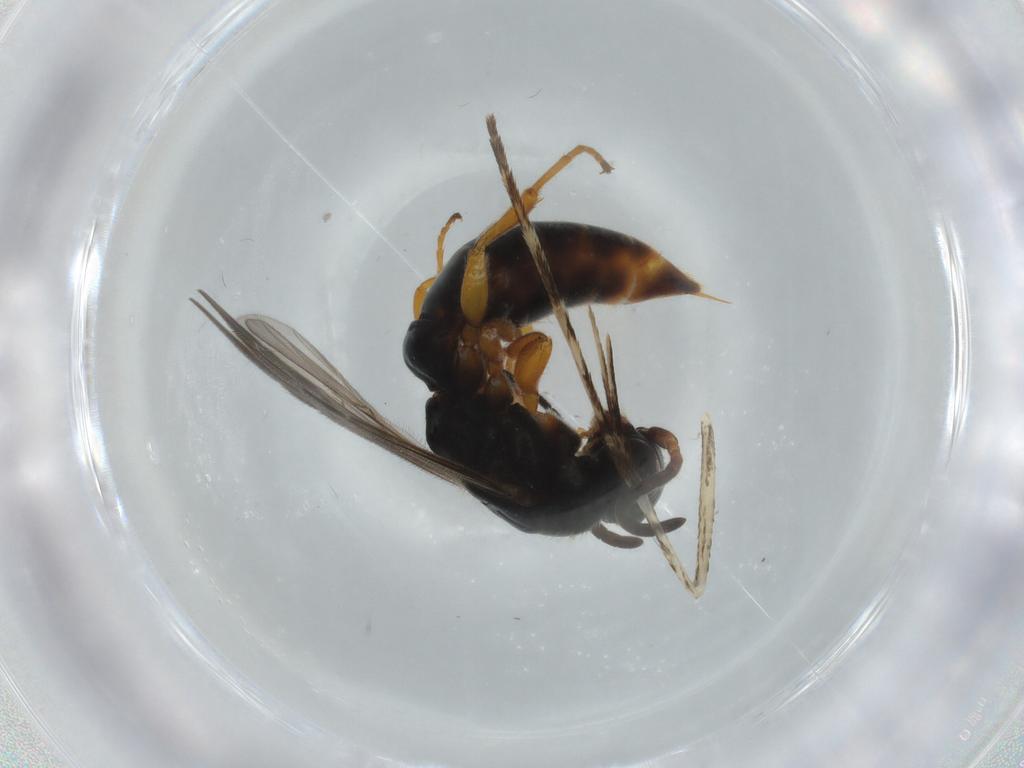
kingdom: Animalia
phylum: Arthropoda
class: Insecta
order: Hymenoptera
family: Sierolomorphidae
